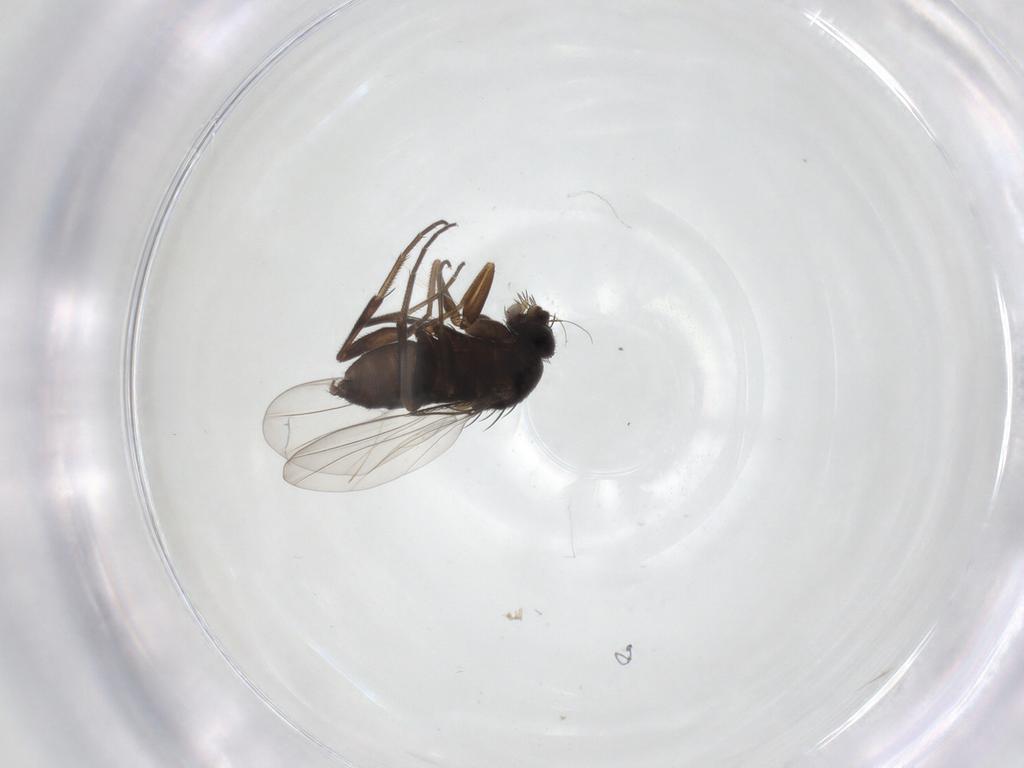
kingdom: Animalia
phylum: Arthropoda
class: Insecta
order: Diptera
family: Phoridae
